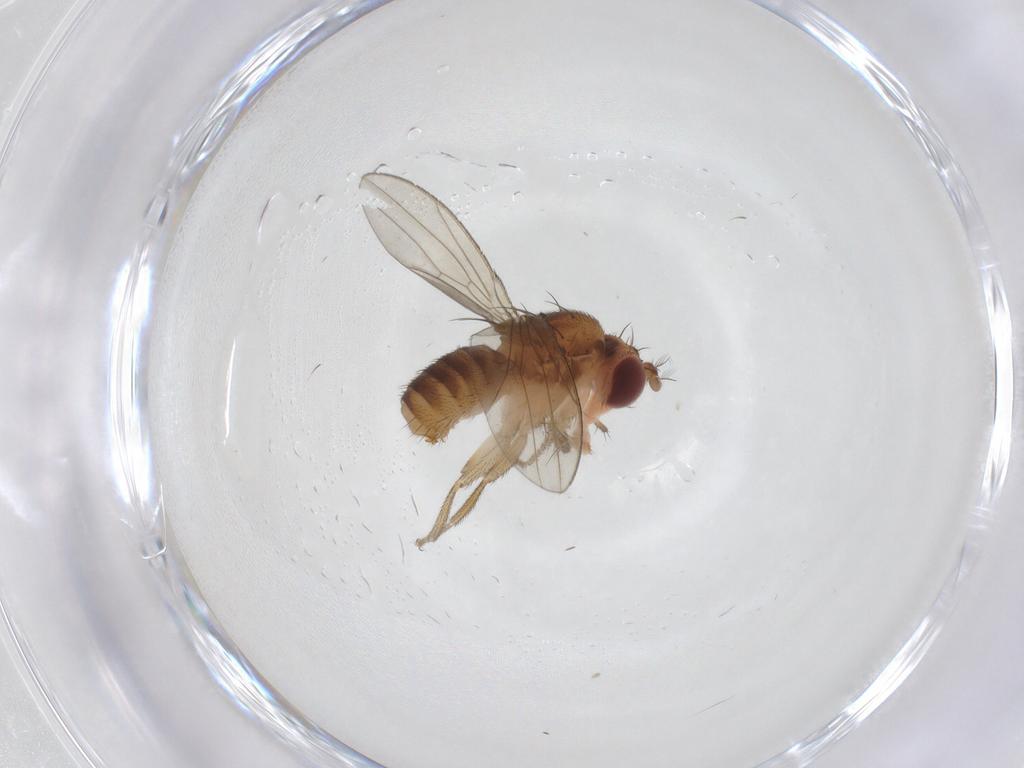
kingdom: Animalia
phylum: Arthropoda
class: Insecta
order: Diptera
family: Drosophilidae
